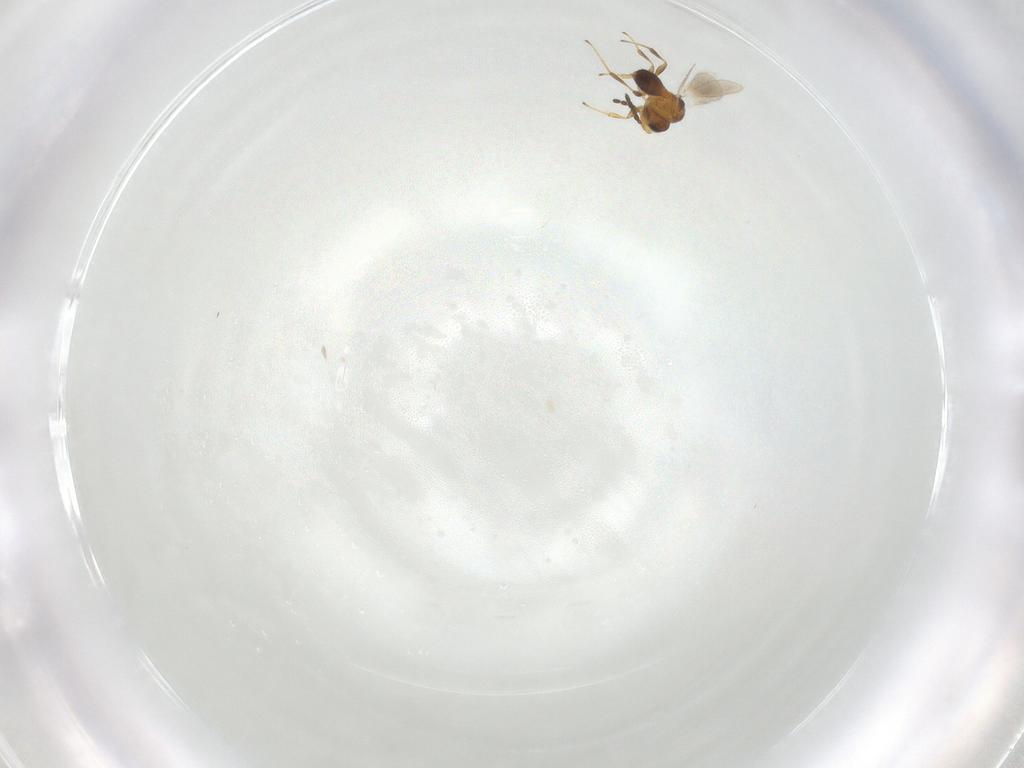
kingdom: Animalia
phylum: Arthropoda
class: Insecta
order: Hymenoptera
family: Platygastridae
